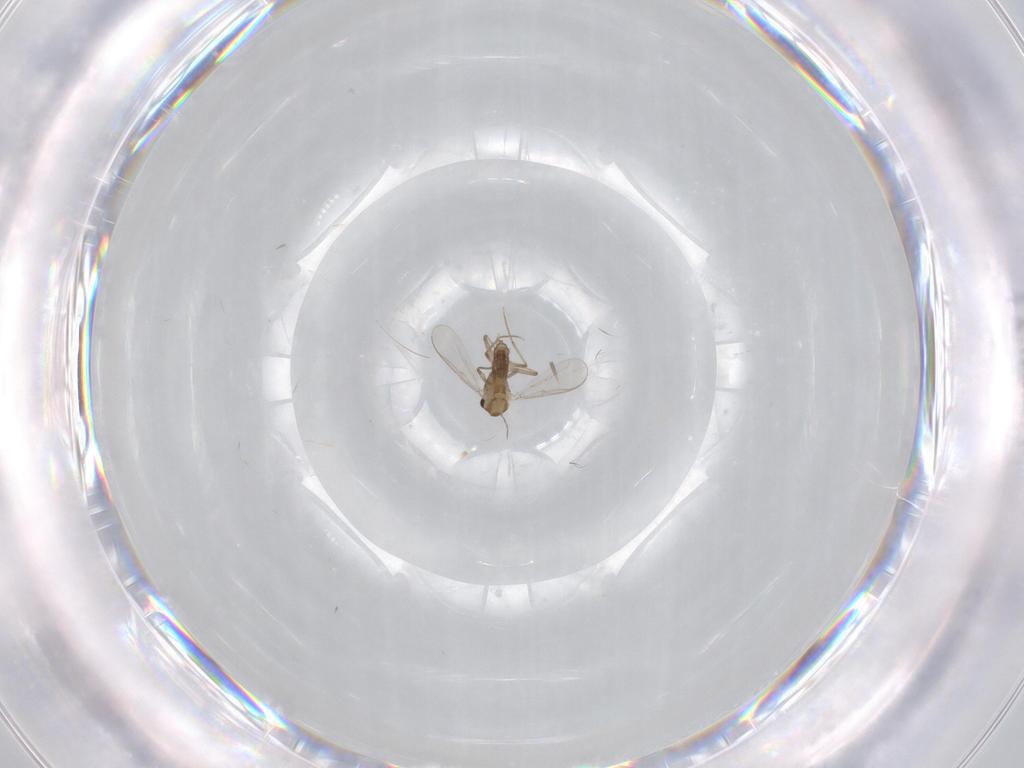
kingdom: Animalia
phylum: Arthropoda
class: Insecta
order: Diptera
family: Chironomidae
